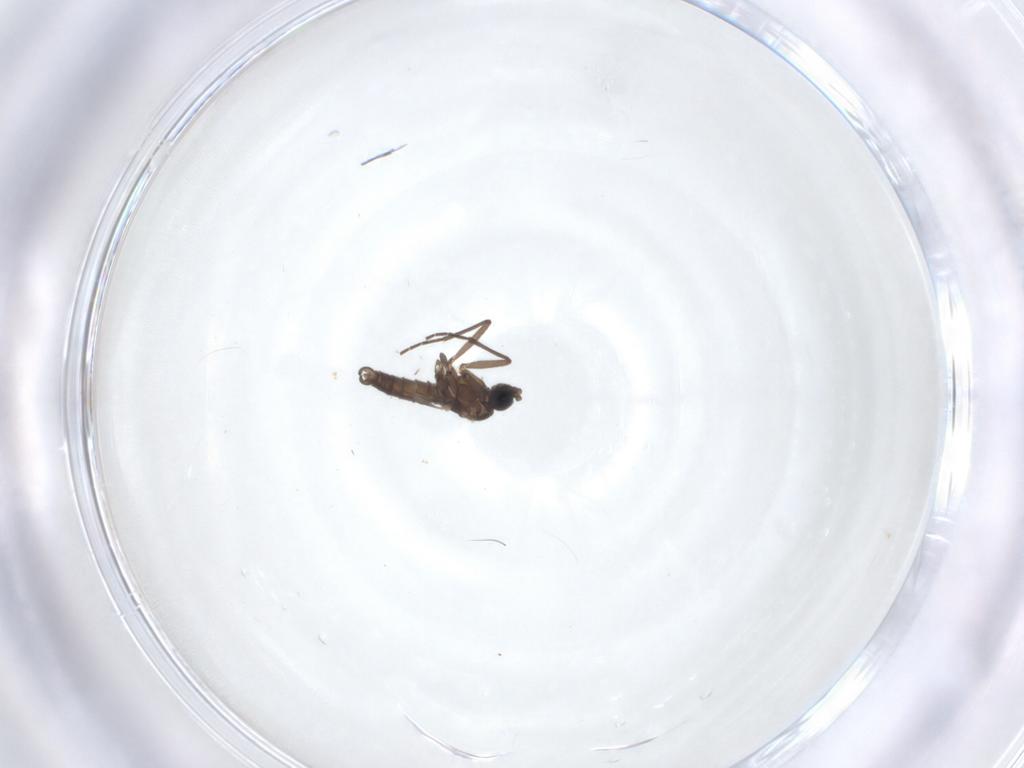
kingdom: Animalia
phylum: Arthropoda
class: Insecta
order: Diptera
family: Sciaridae
